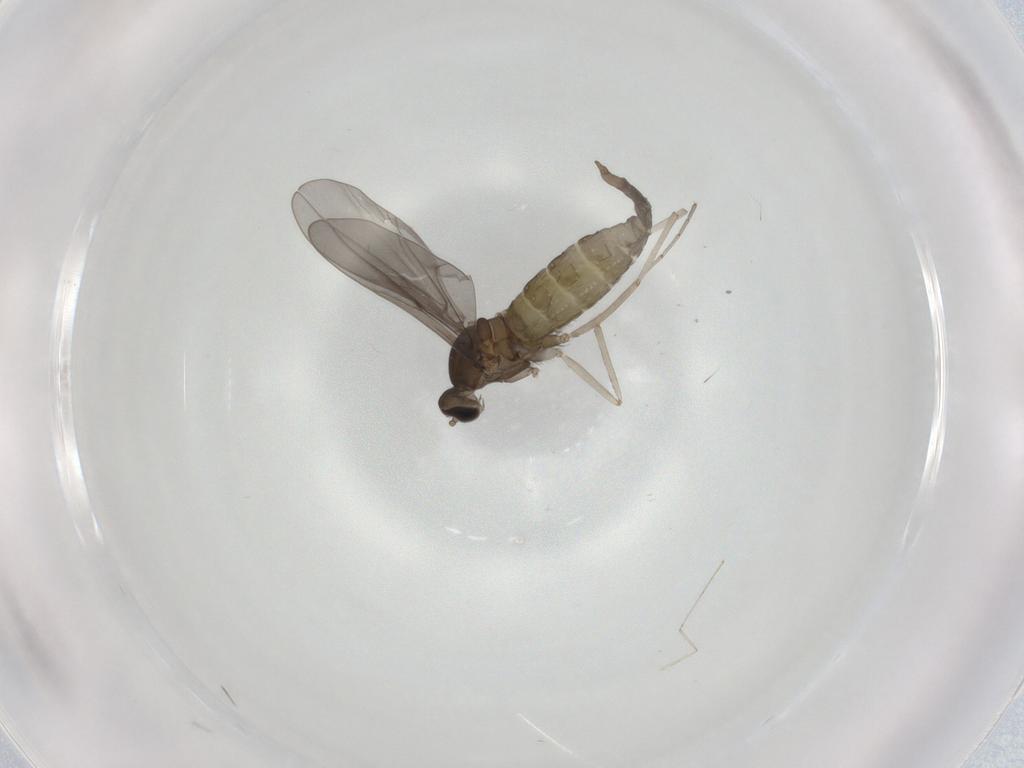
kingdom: Animalia
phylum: Arthropoda
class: Insecta
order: Diptera
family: Cecidomyiidae
